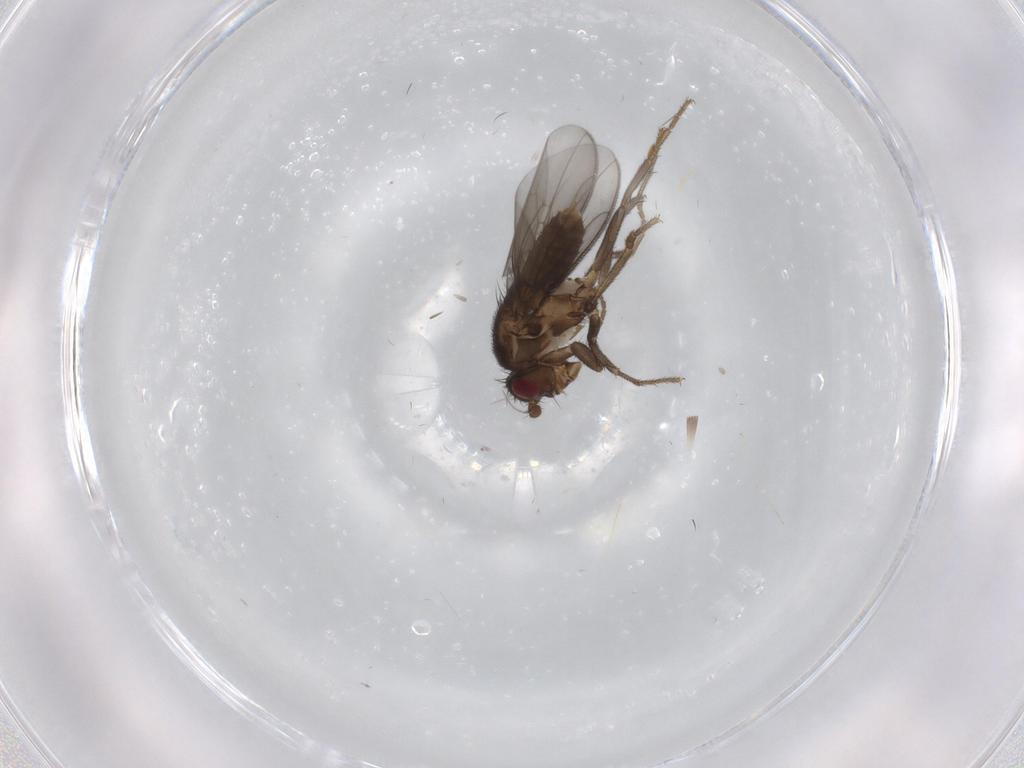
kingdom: Animalia
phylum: Arthropoda
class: Insecta
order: Diptera
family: Sphaeroceridae
